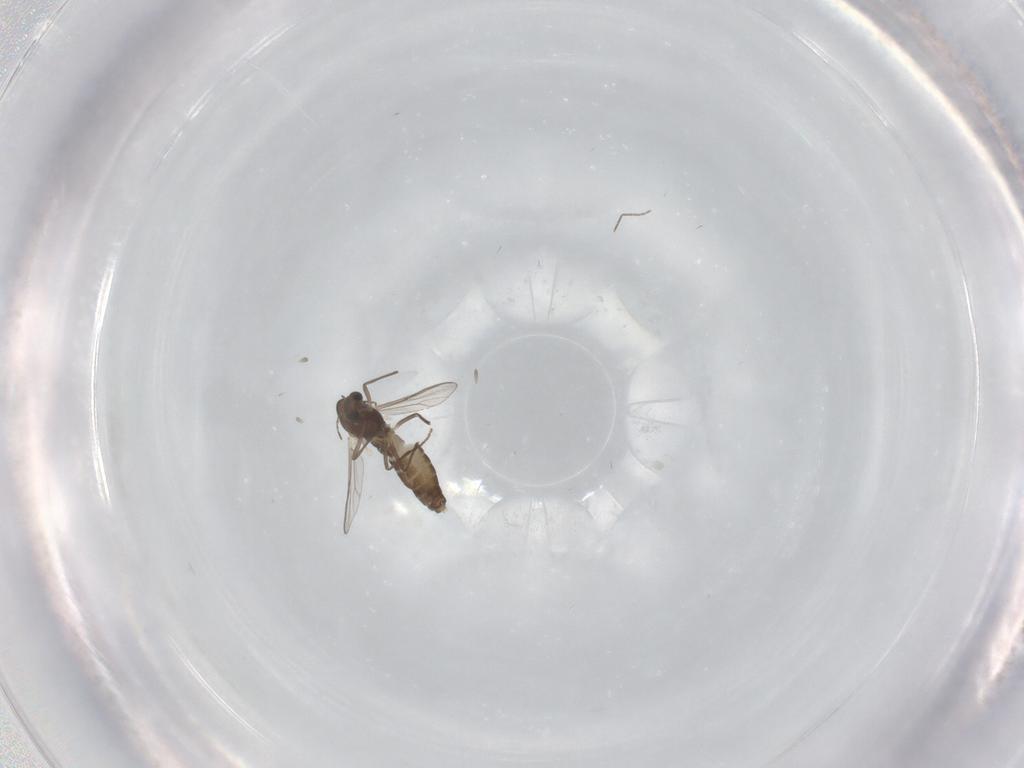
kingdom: Animalia
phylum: Arthropoda
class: Insecta
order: Diptera
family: Chironomidae
